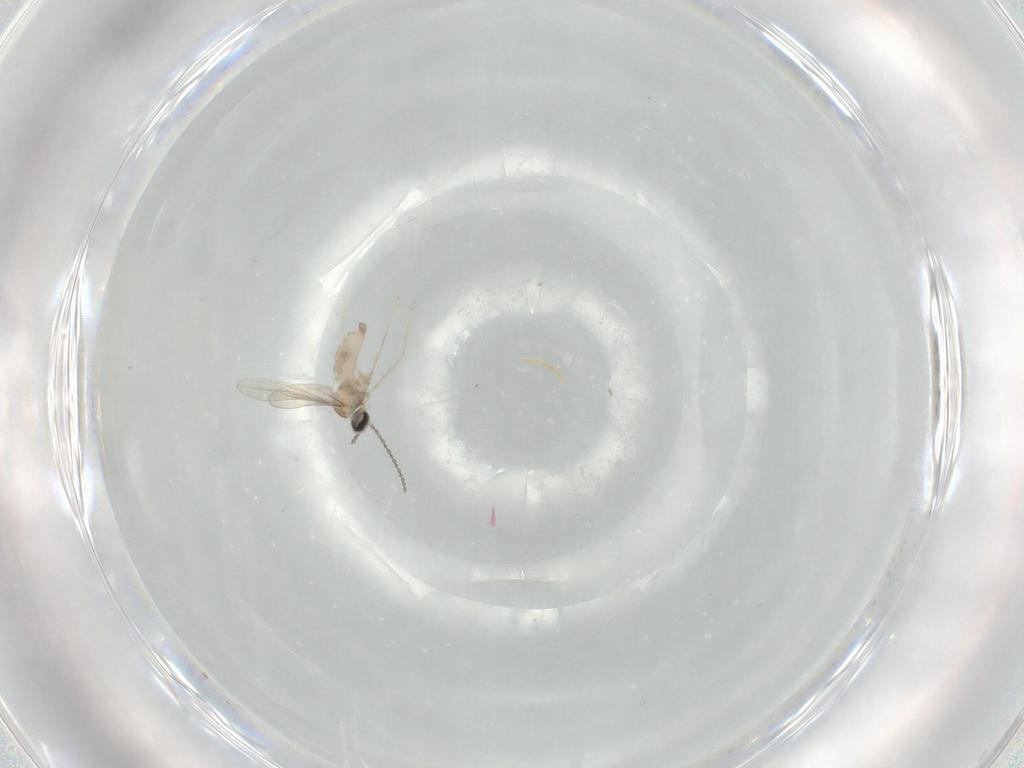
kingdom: Animalia
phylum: Arthropoda
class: Insecta
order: Diptera
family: Cecidomyiidae
